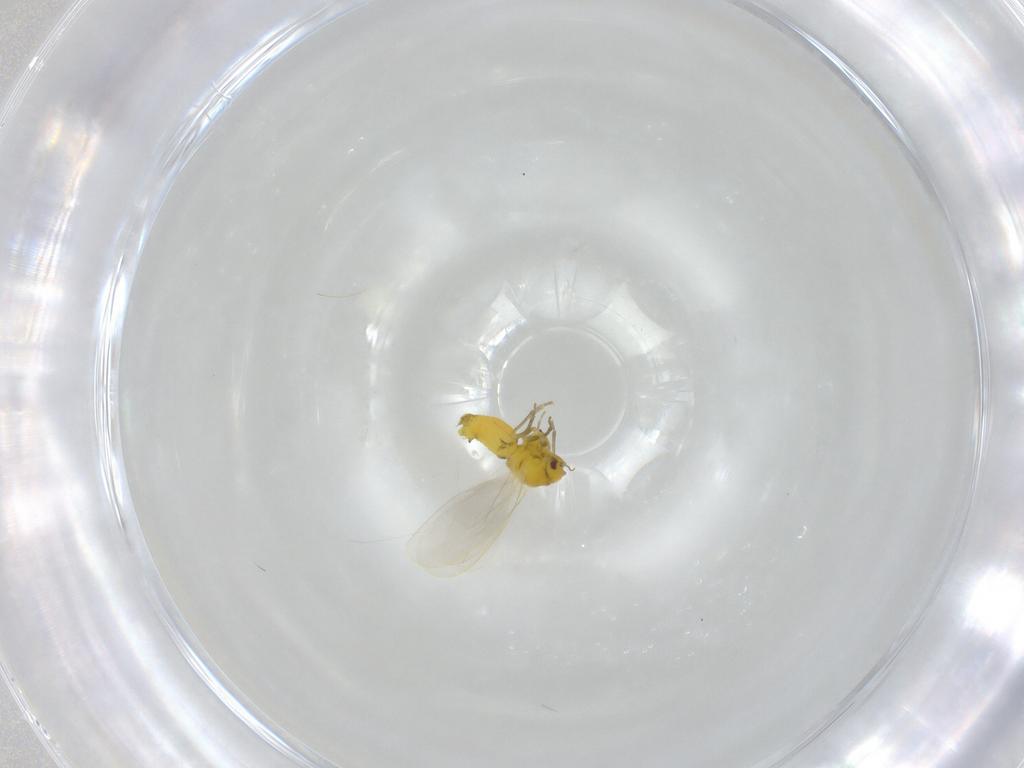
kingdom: Animalia
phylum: Arthropoda
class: Insecta
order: Hemiptera
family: Aleyrodidae
